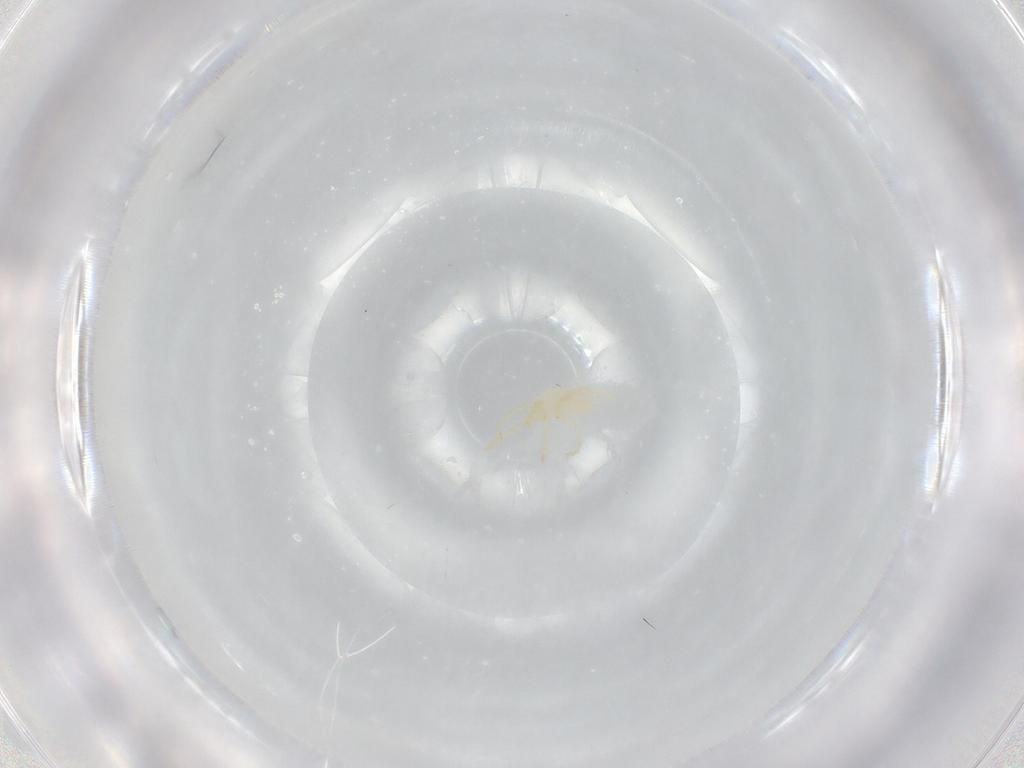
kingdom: Animalia
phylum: Arthropoda
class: Arachnida
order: Trombidiformes
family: Trombidiidae
